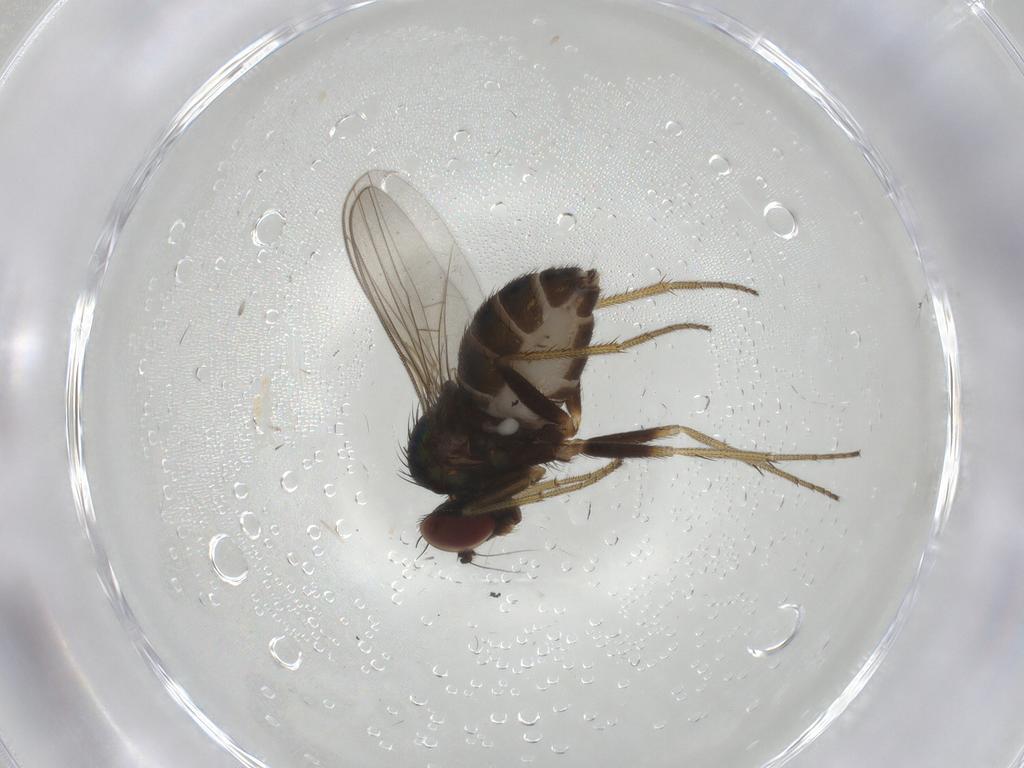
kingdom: Animalia
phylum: Arthropoda
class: Insecta
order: Diptera
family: Dolichopodidae
